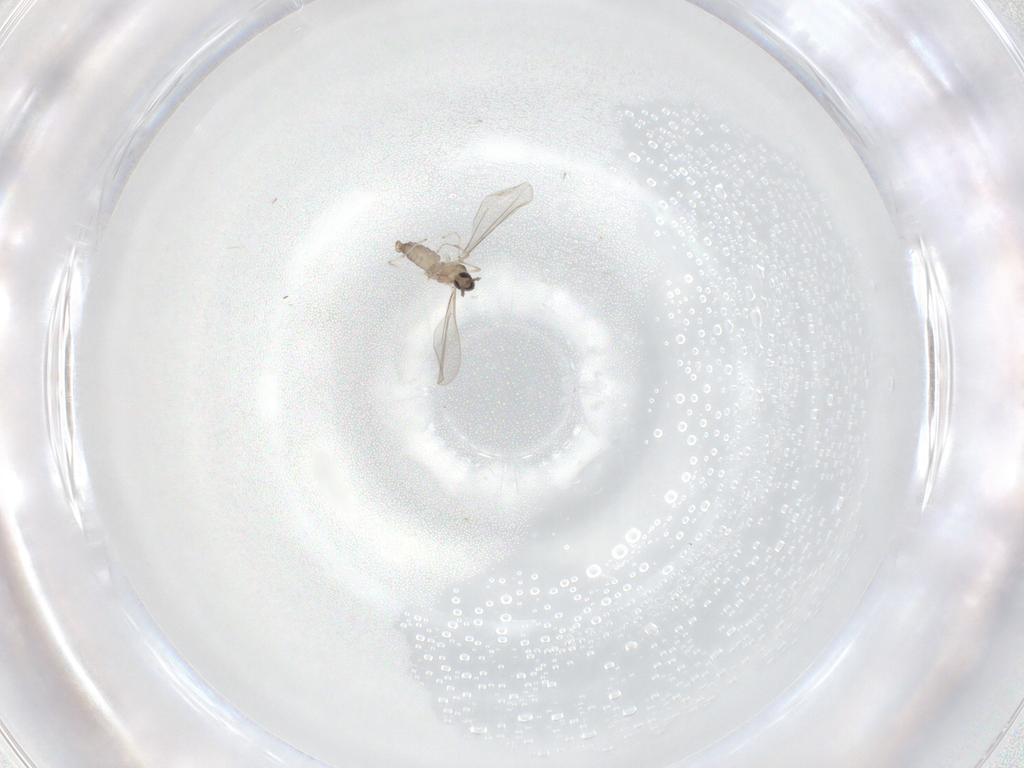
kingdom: Animalia
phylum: Arthropoda
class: Insecta
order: Diptera
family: Cecidomyiidae
